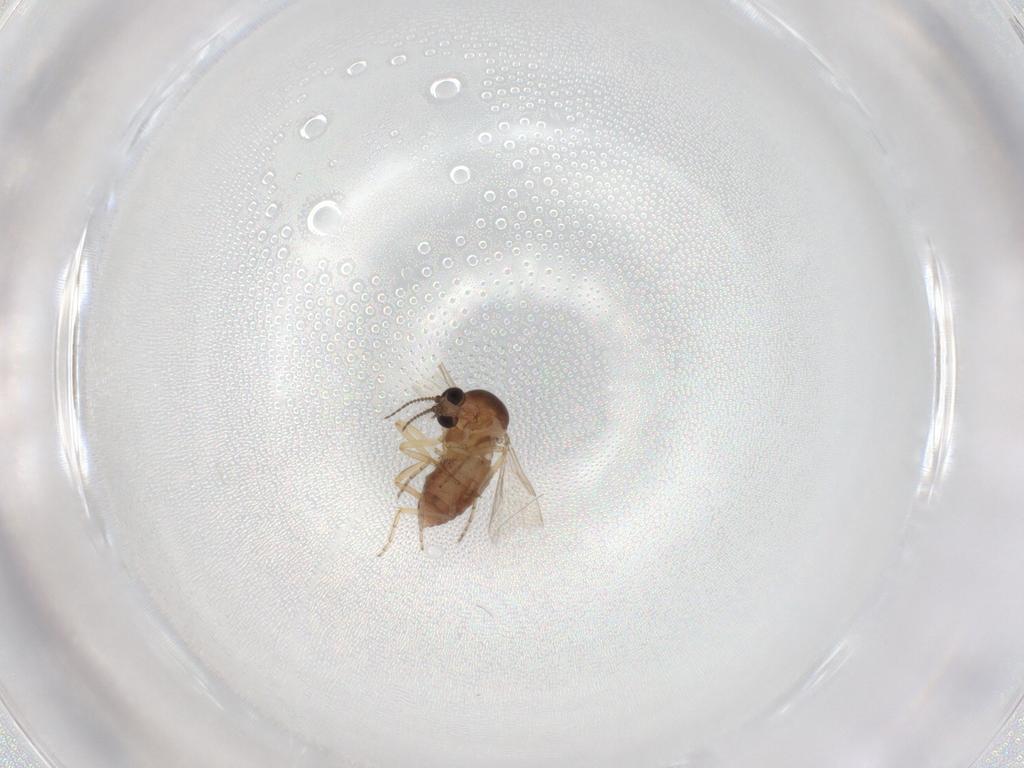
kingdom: Animalia
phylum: Arthropoda
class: Insecta
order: Diptera
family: Ceratopogonidae
